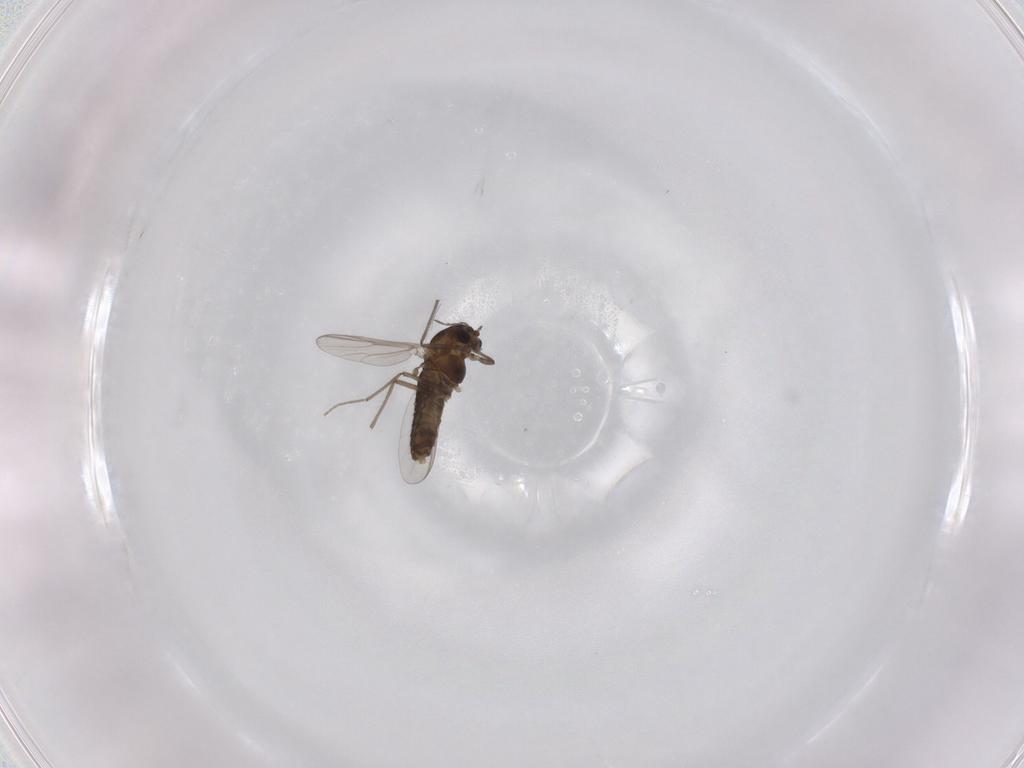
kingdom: Animalia
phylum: Arthropoda
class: Insecta
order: Diptera
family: Chironomidae
